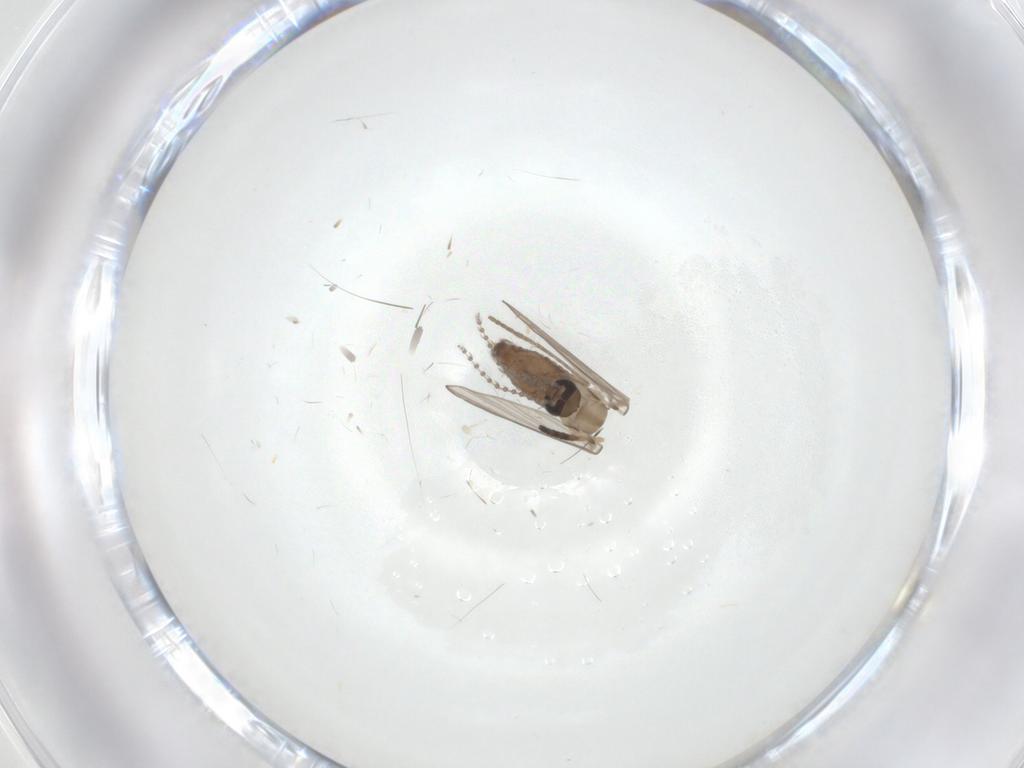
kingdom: Animalia
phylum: Arthropoda
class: Insecta
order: Diptera
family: Psychodidae
